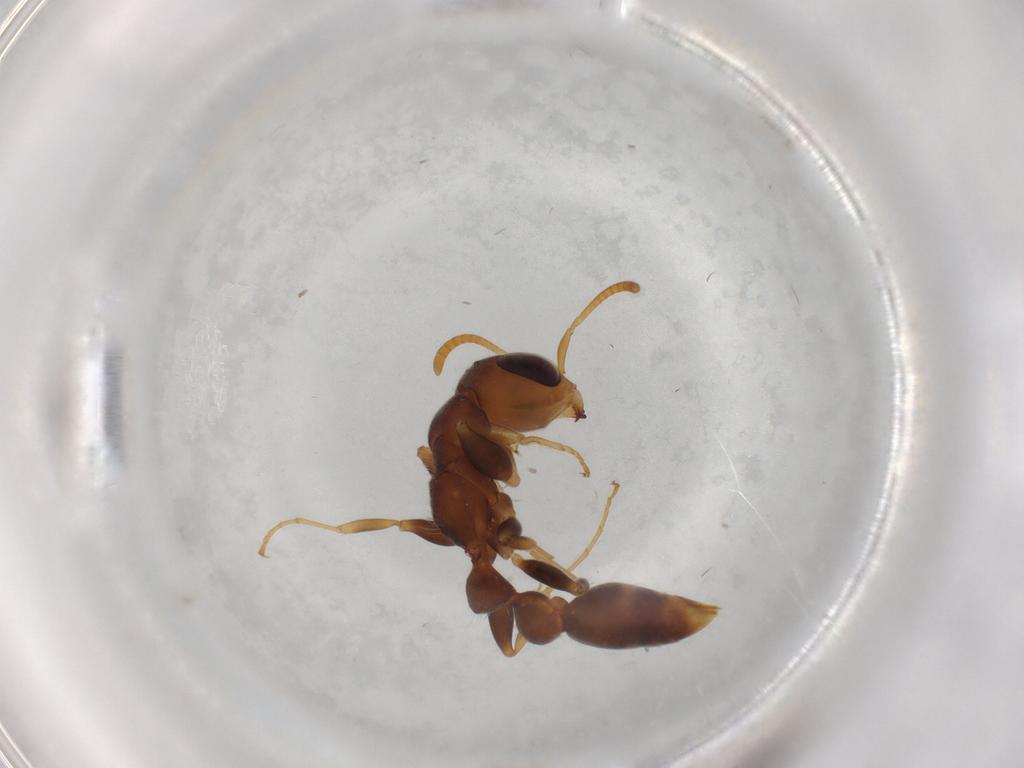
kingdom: Animalia
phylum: Arthropoda
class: Insecta
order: Hymenoptera
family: Formicidae
